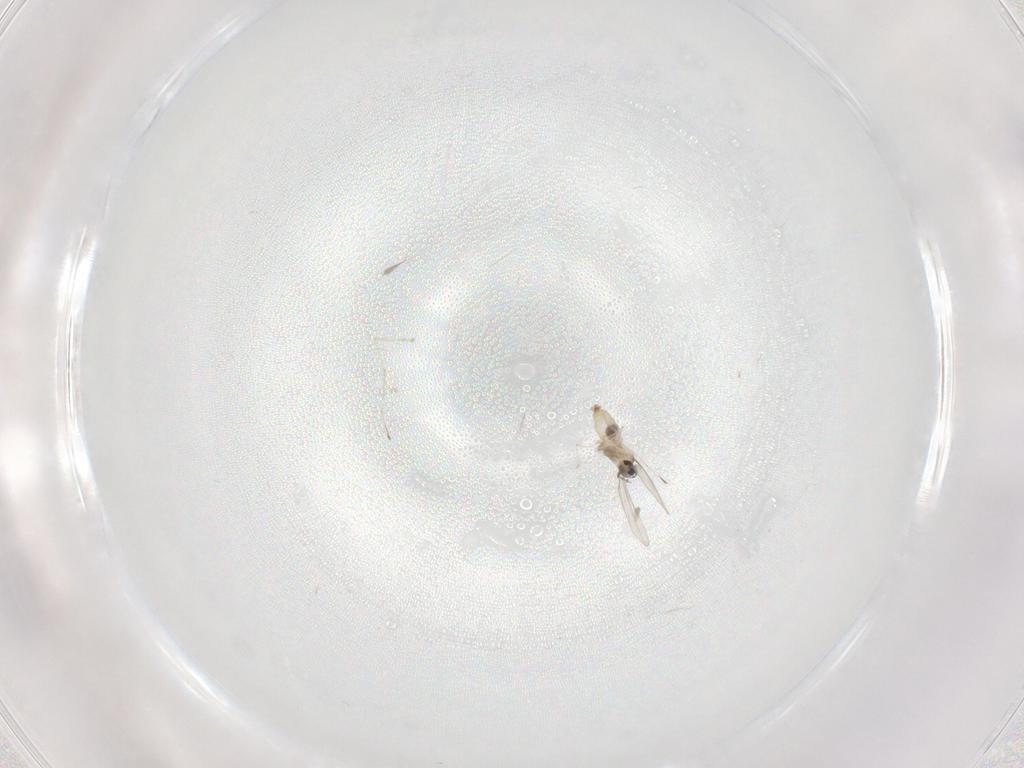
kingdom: Animalia
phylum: Arthropoda
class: Insecta
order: Diptera
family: Cecidomyiidae
